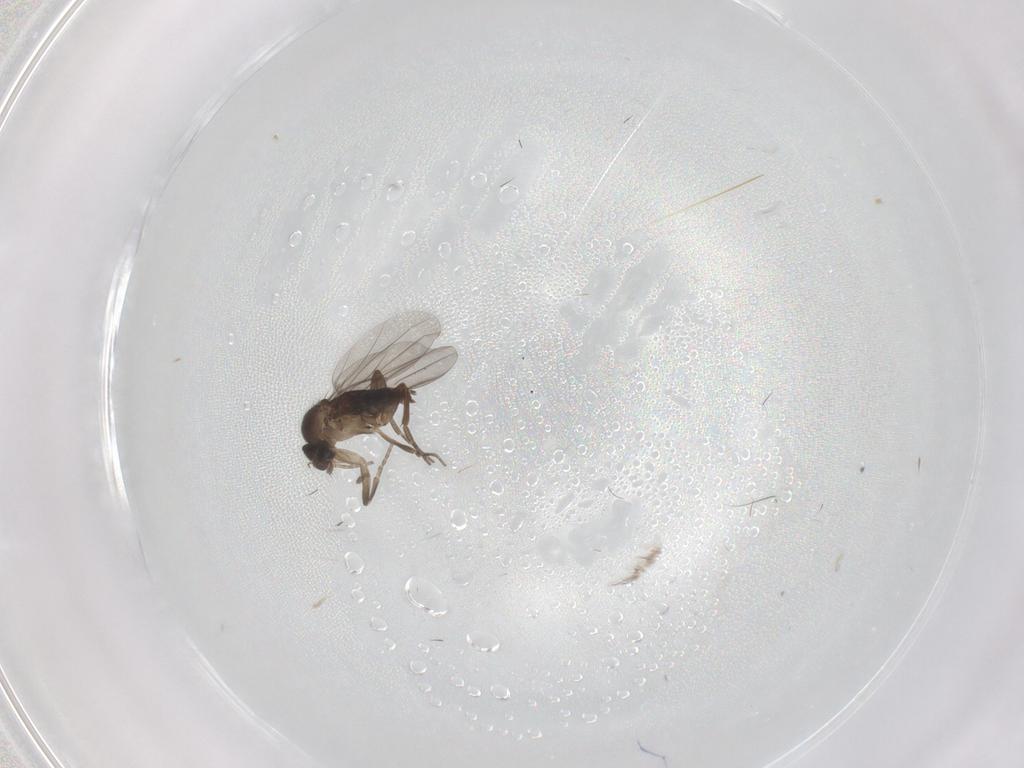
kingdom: Animalia
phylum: Arthropoda
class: Insecta
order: Diptera
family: Phoridae
